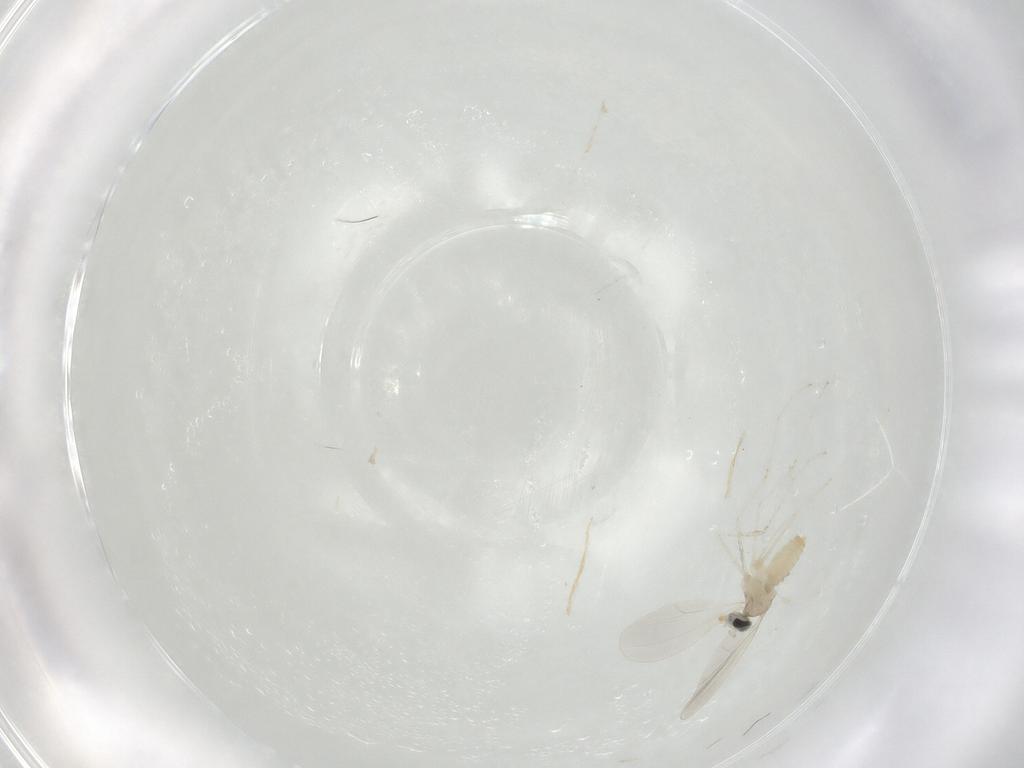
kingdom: Animalia
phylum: Arthropoda
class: Insecta
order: Diptera
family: Cecidomyiidae
